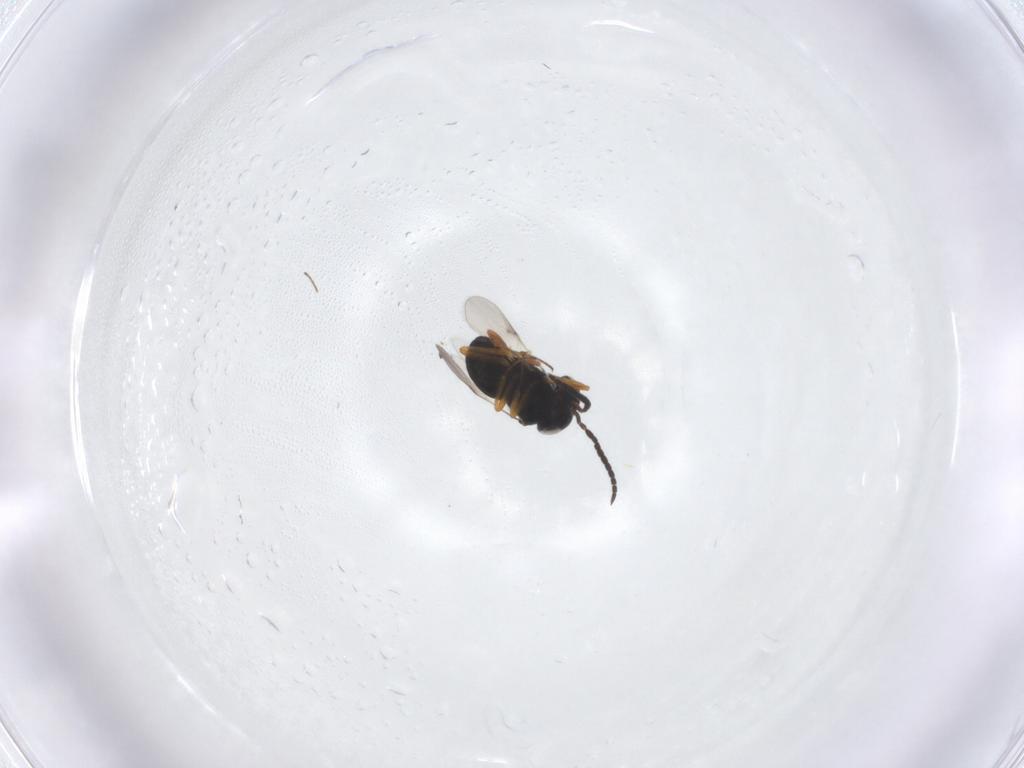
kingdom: Animalia
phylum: Arthropoda
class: Insecta
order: Hymenoptera
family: Scelionidae
